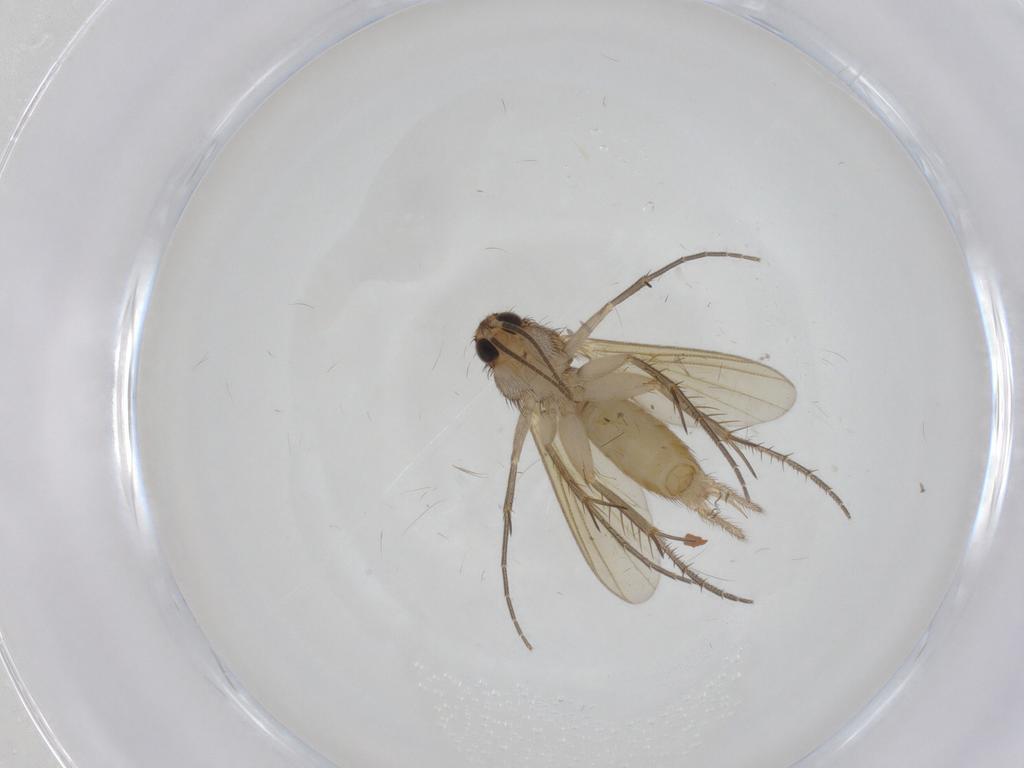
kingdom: Animalia
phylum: Arthropoda
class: Insecta
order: Diptera
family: Mycetophilidae
